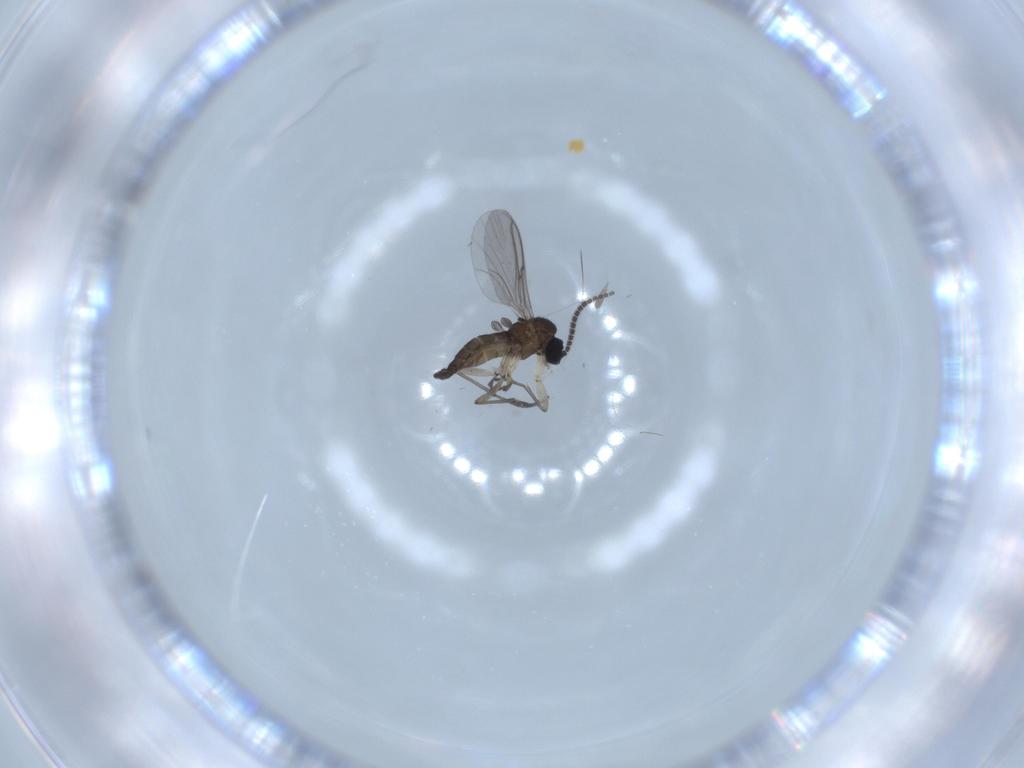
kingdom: Animalia
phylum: Arthropoda
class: Insecta
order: Diptera
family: Sciaridae
